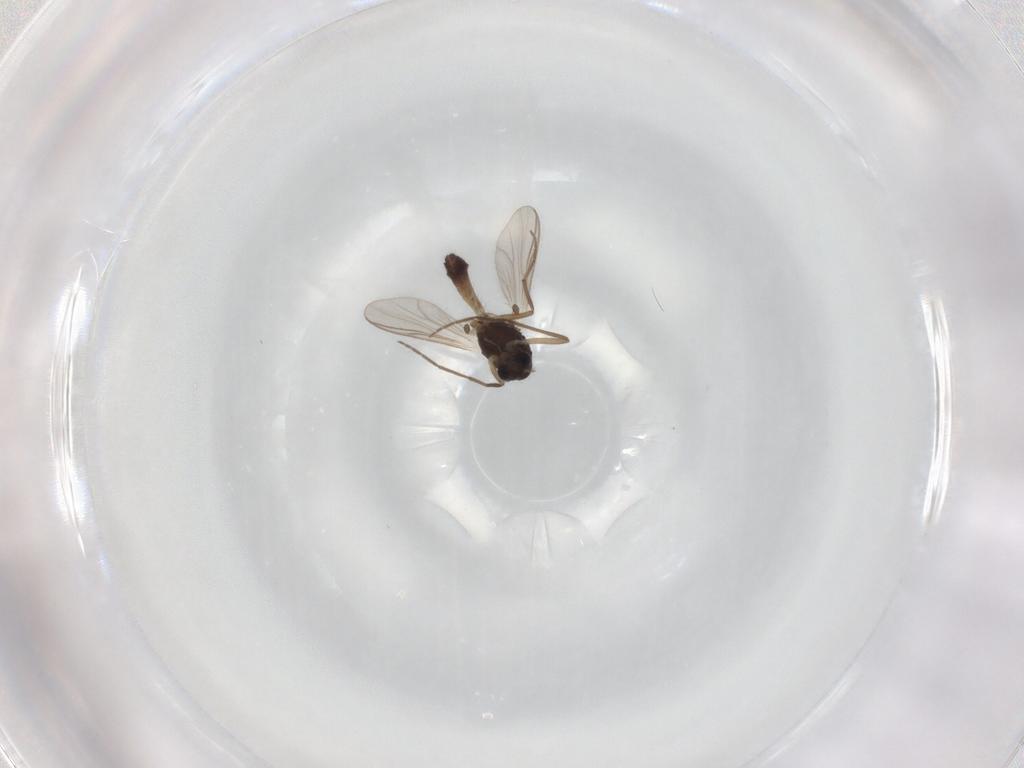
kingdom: Animalia
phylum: Arthropoda
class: Insecta
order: Diptera
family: Chironomidae
